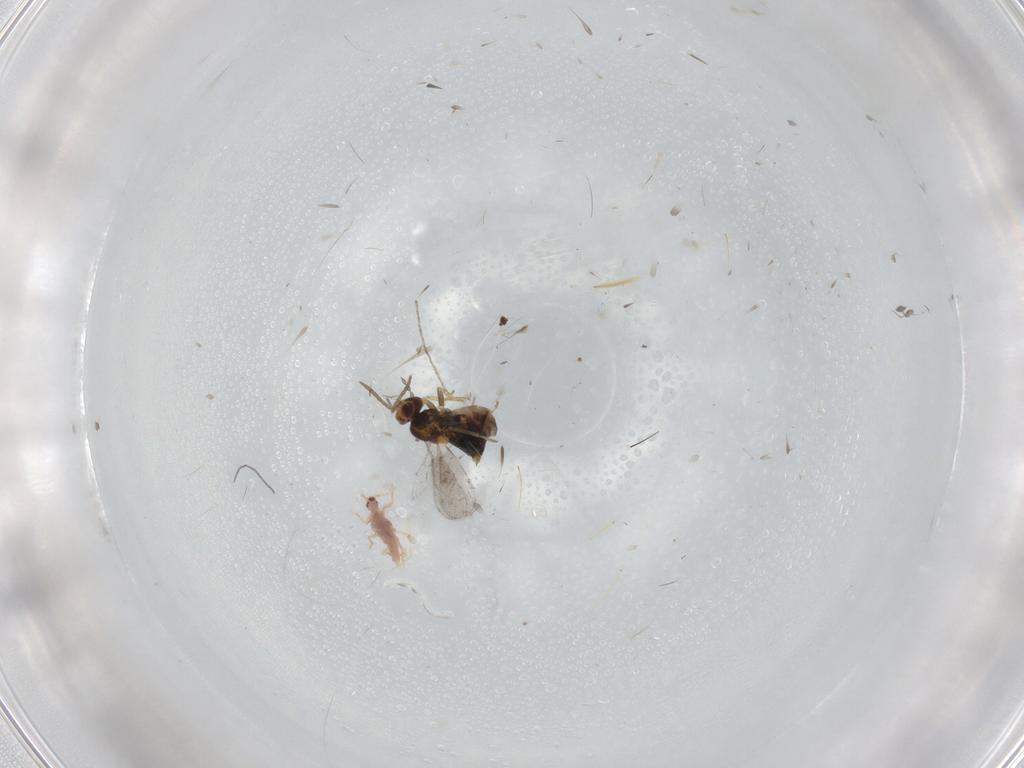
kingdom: Animalia
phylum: Arthropoda
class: Insecta
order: Diptera
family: Cecidomyiidae
